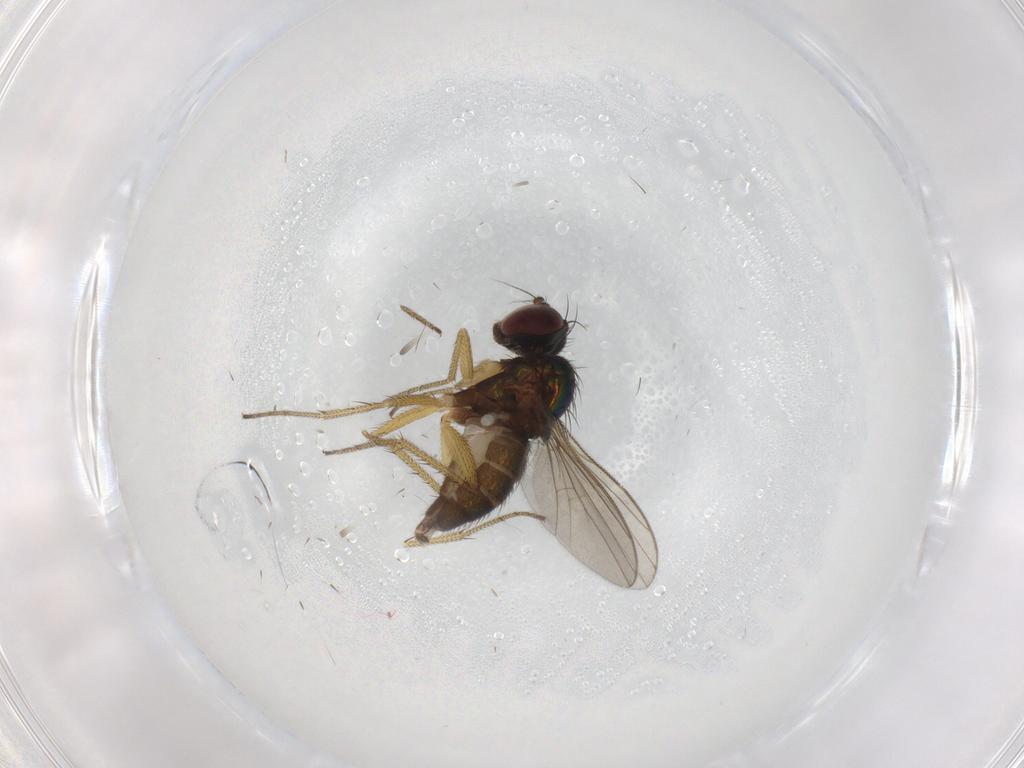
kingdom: Animalia
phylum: Arthropoda
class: Insecta
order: Diptera
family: Dolichopodidae
